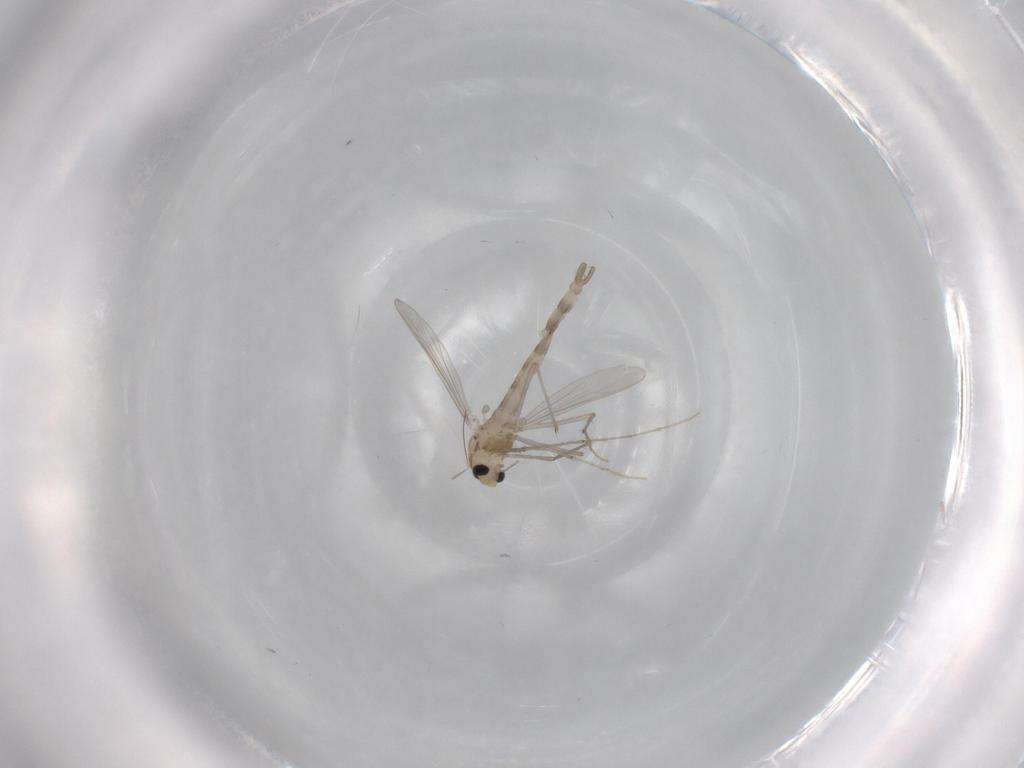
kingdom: Animalia
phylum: Arthropoda
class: Insecta
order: Diptera
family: Chironomidae
